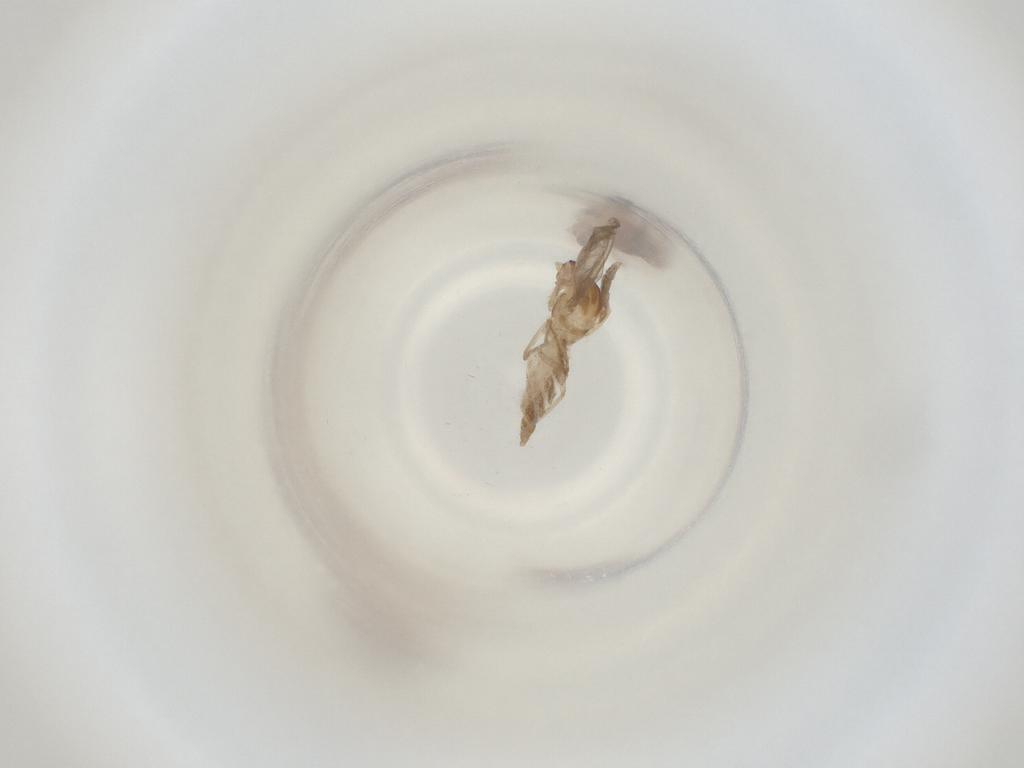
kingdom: Animalia
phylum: Arthropoda
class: Insecta
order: Diptera
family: Cecidomyiidae
